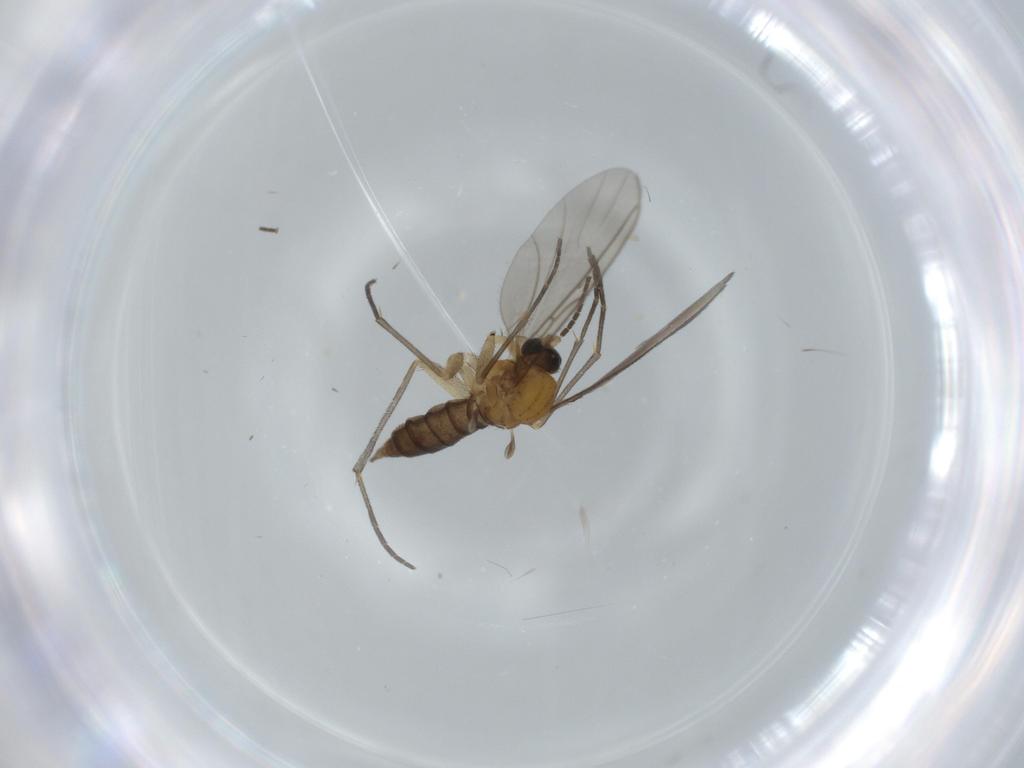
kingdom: Animalia
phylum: Arthropoda
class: Insecta
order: Diptera
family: Sciaridae
